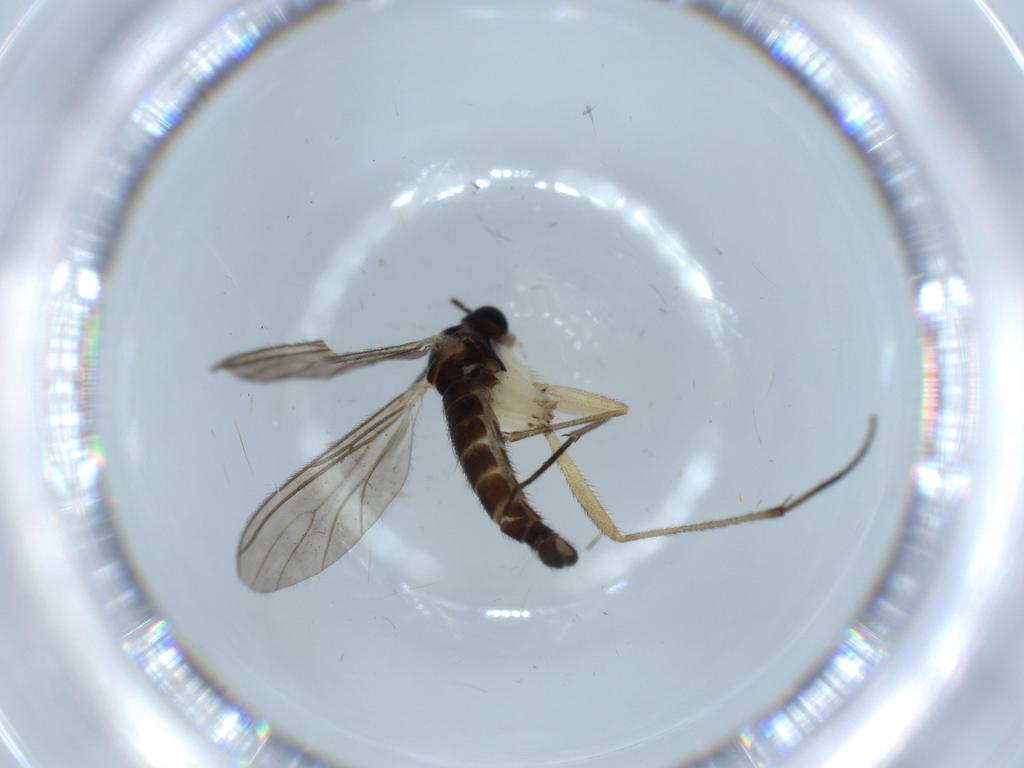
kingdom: Animalia
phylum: Arthropoda
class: Insecta
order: Diptera
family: Sciaridae
